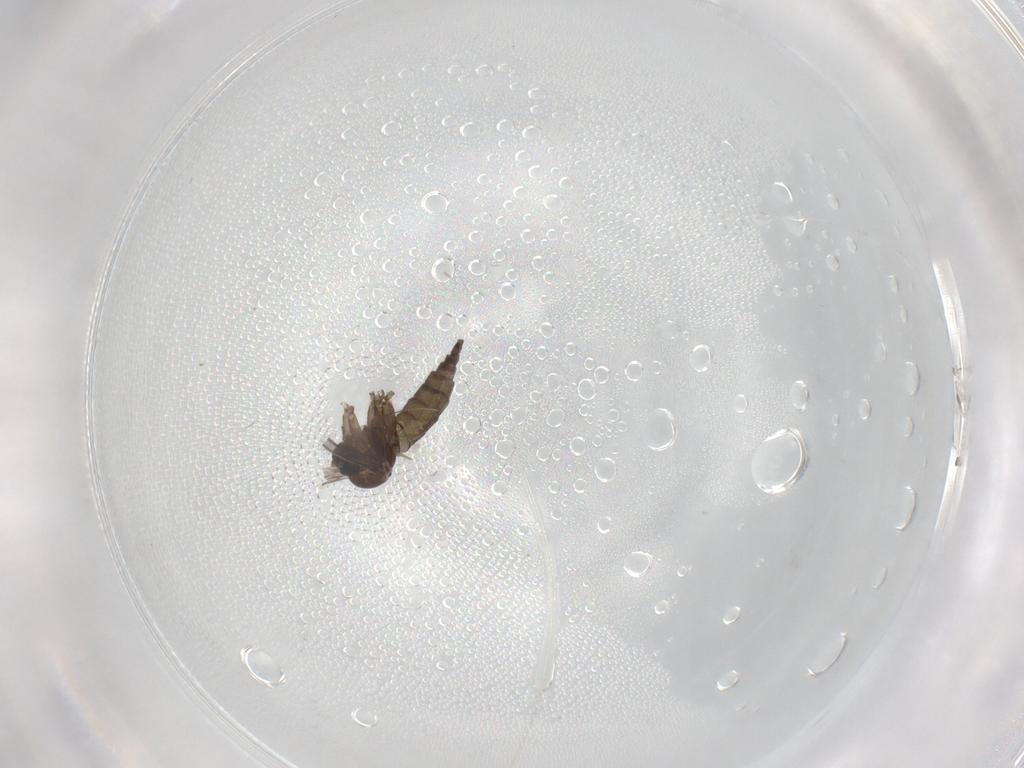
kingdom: Animalia
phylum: Arthropoda
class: Insecta
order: Diptera
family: Sciaridae
